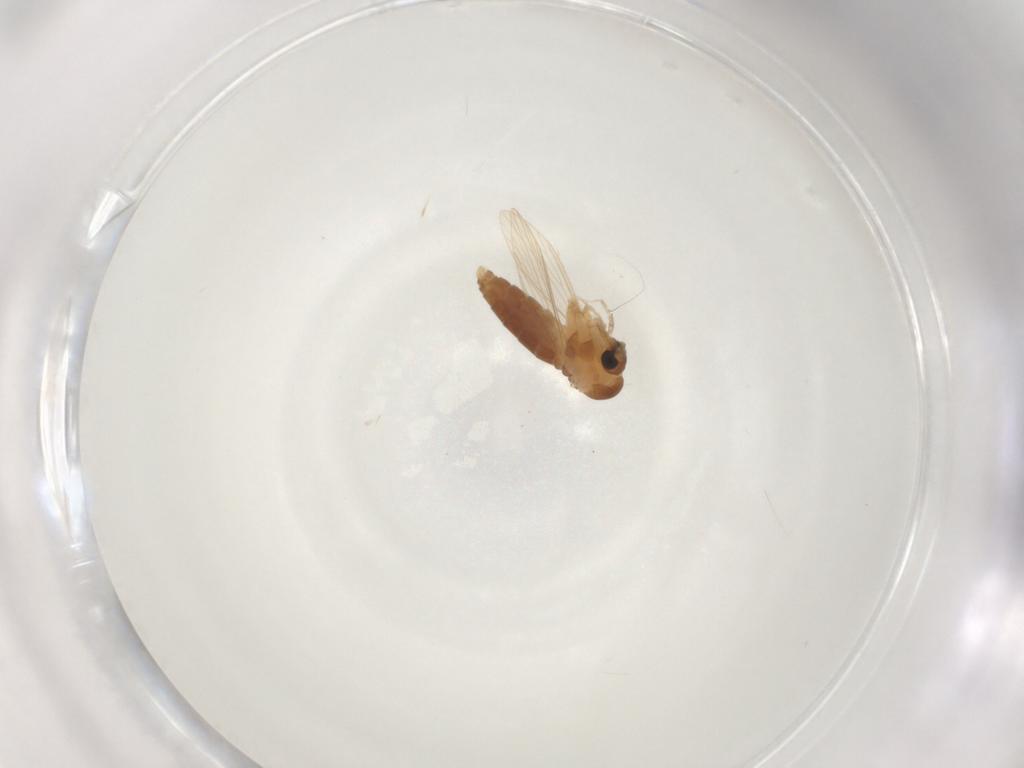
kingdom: Animalia
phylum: Arthropoda
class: Insecta
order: Diptera
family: Psychodidae
